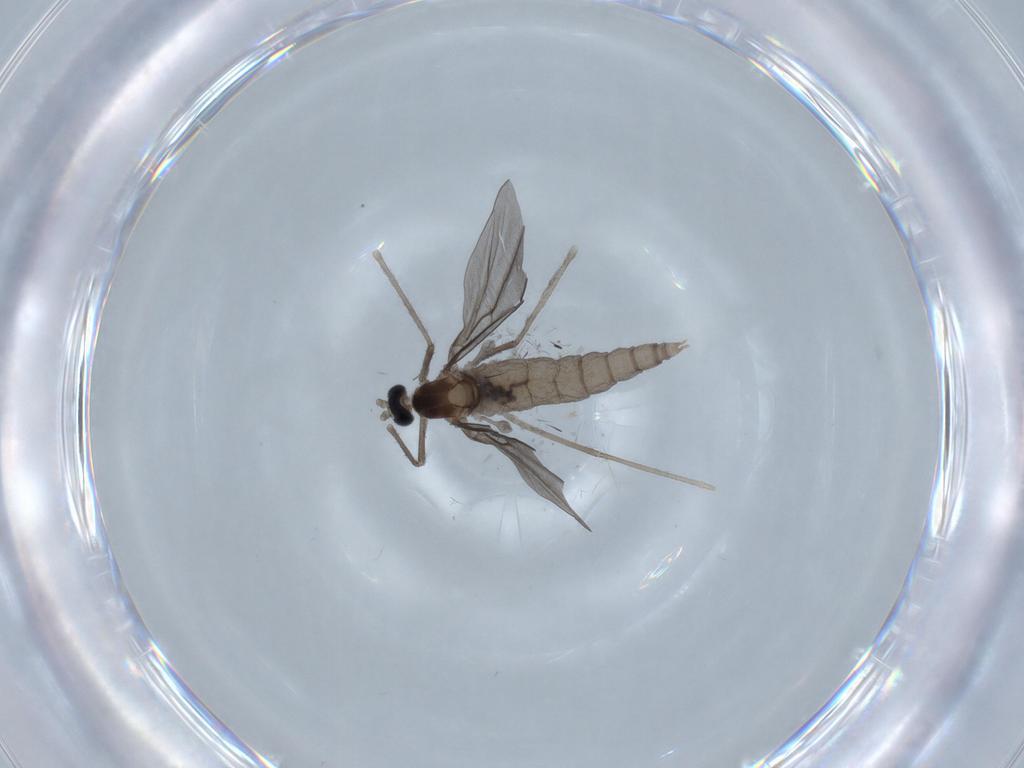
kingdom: Animalia
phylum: Arthropoda
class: Insecta
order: Diptera
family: Cecidomyiidae
